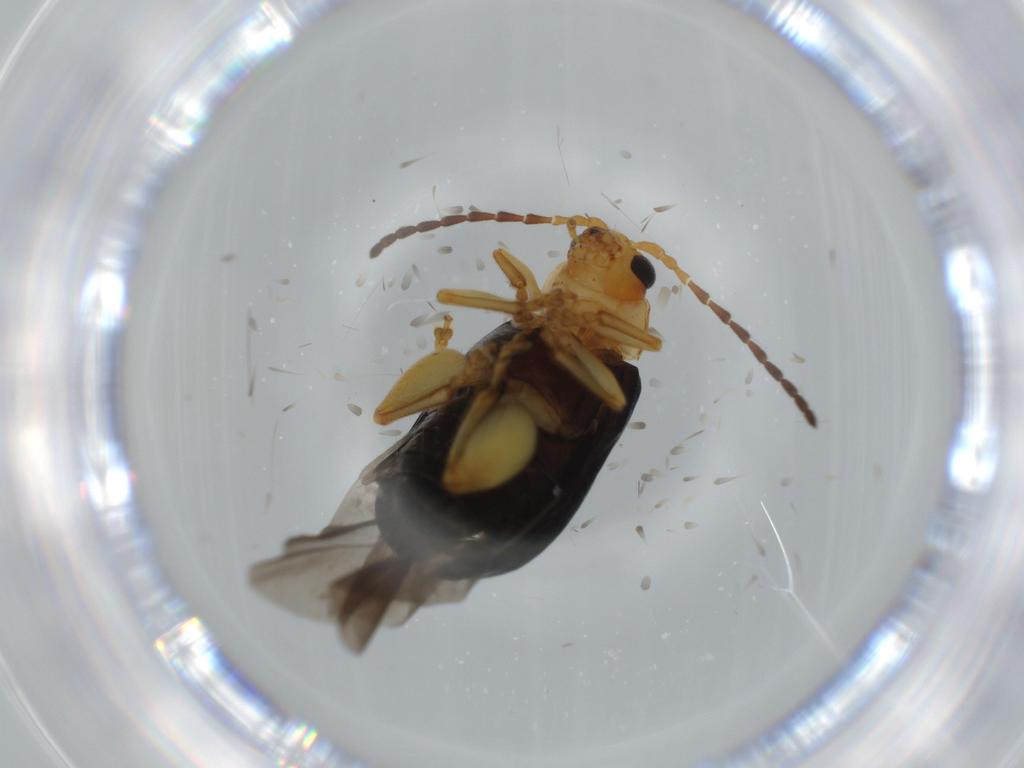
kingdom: Animalia
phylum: Arthropoda
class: Insecta
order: Coleoptera
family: Chrysomelidae
